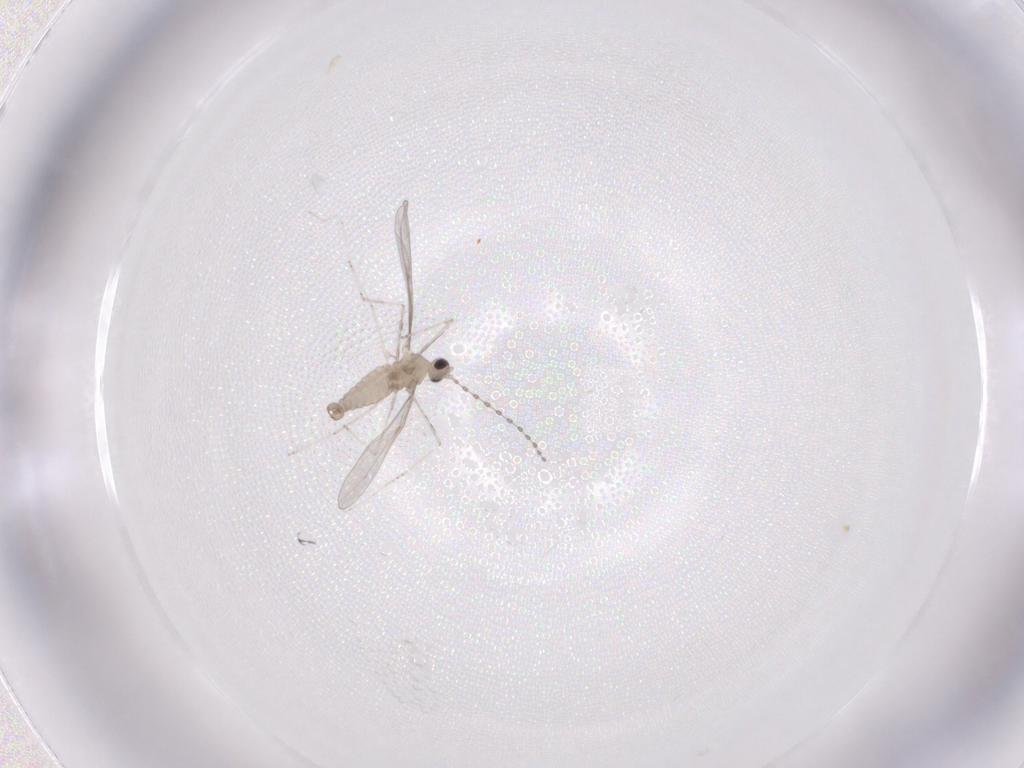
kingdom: Animalia
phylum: Arthropoda
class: Insecta
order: Diptera
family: Cecidomyiidae
